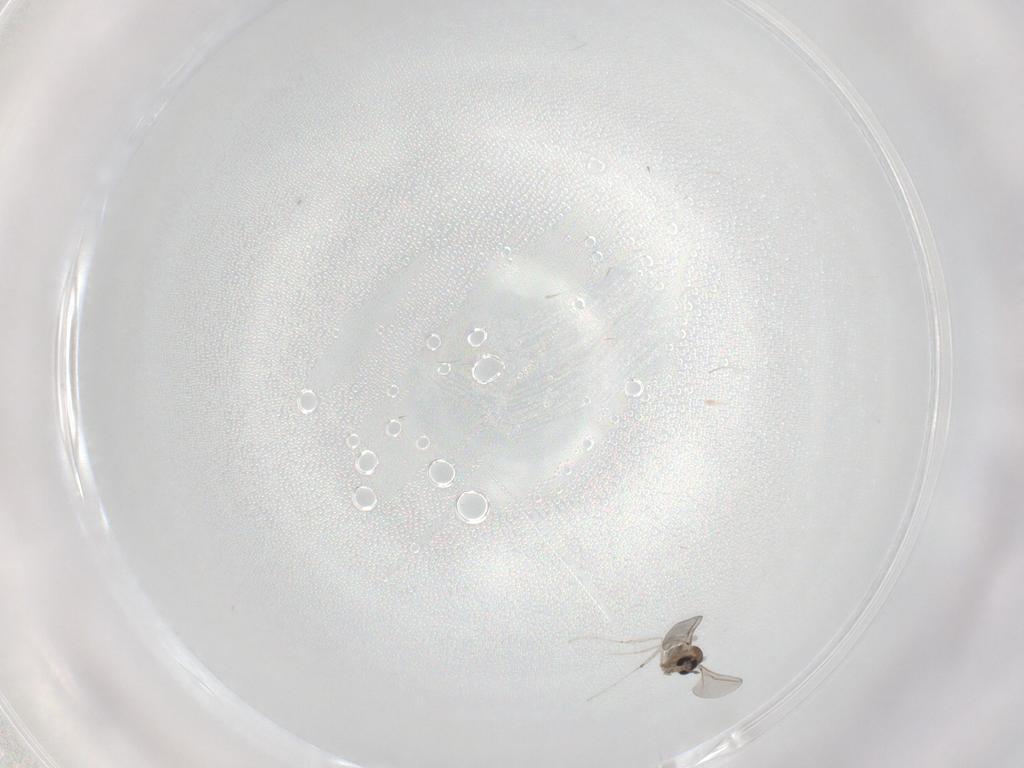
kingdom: Animalia
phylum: Arthropoda
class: Insecta
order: Diptera
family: Cecidomyiidae
